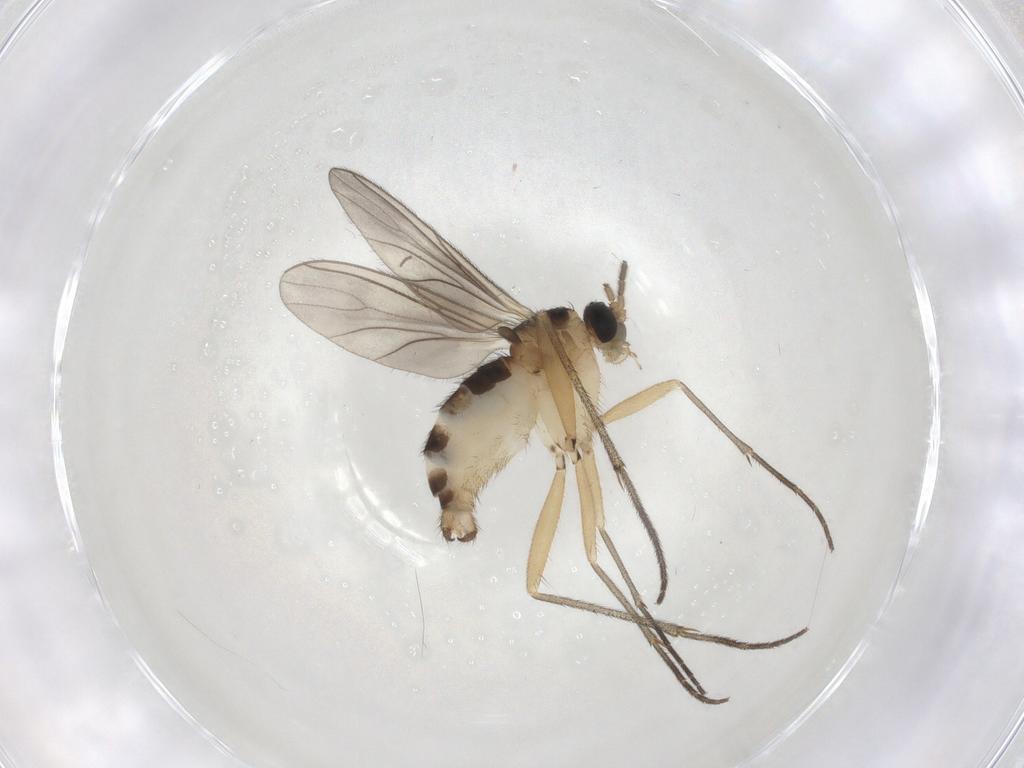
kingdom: Animalia
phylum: Arthropoda
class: Insecta
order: Diptera
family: Sciaridae
